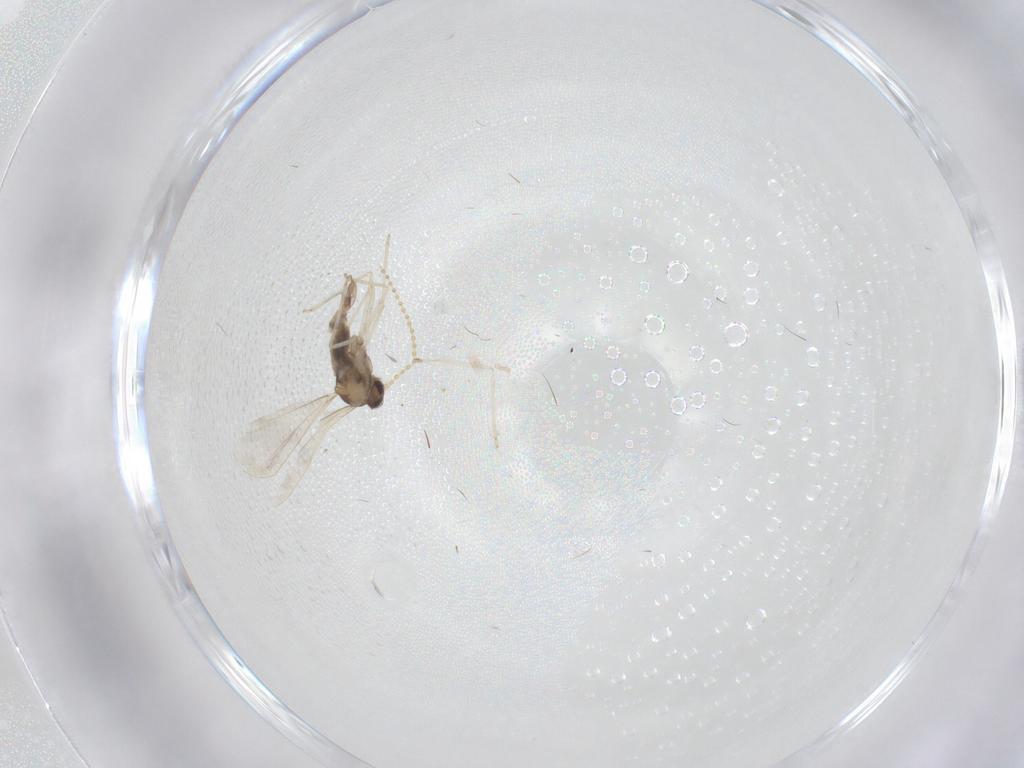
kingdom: Animalia
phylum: Arthropoda
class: Insecta
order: Diptera
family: Cecidomyiidae
